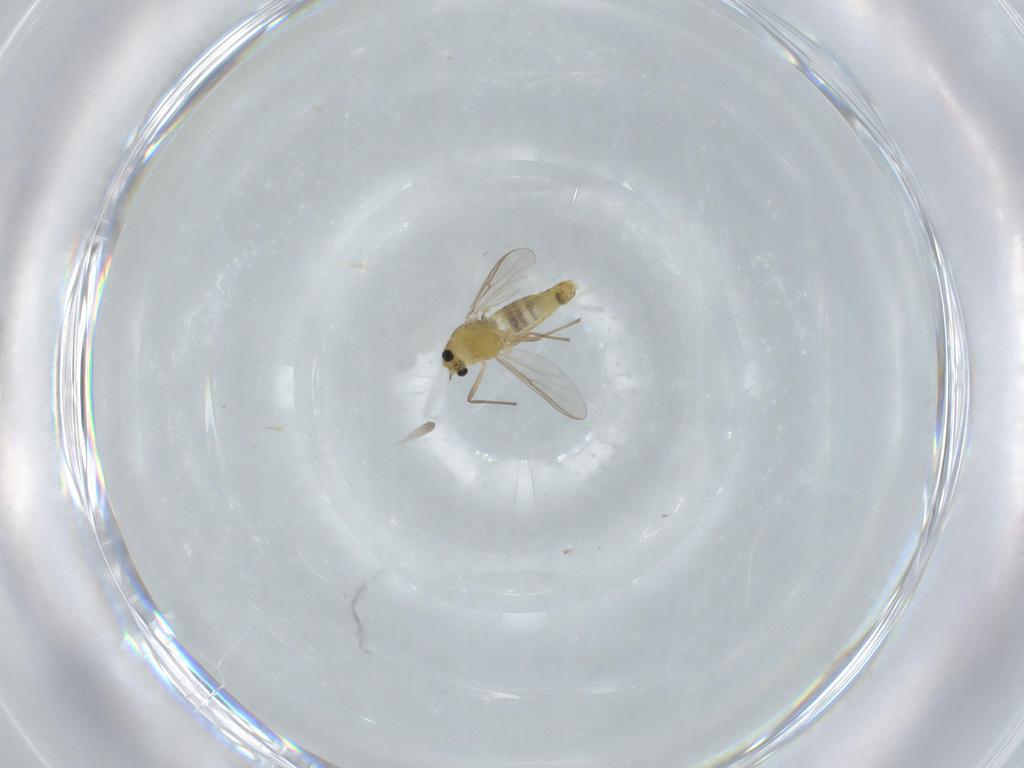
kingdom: Animalia
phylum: Arthropoda
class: Insecta
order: Diptera
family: Chironomidae
